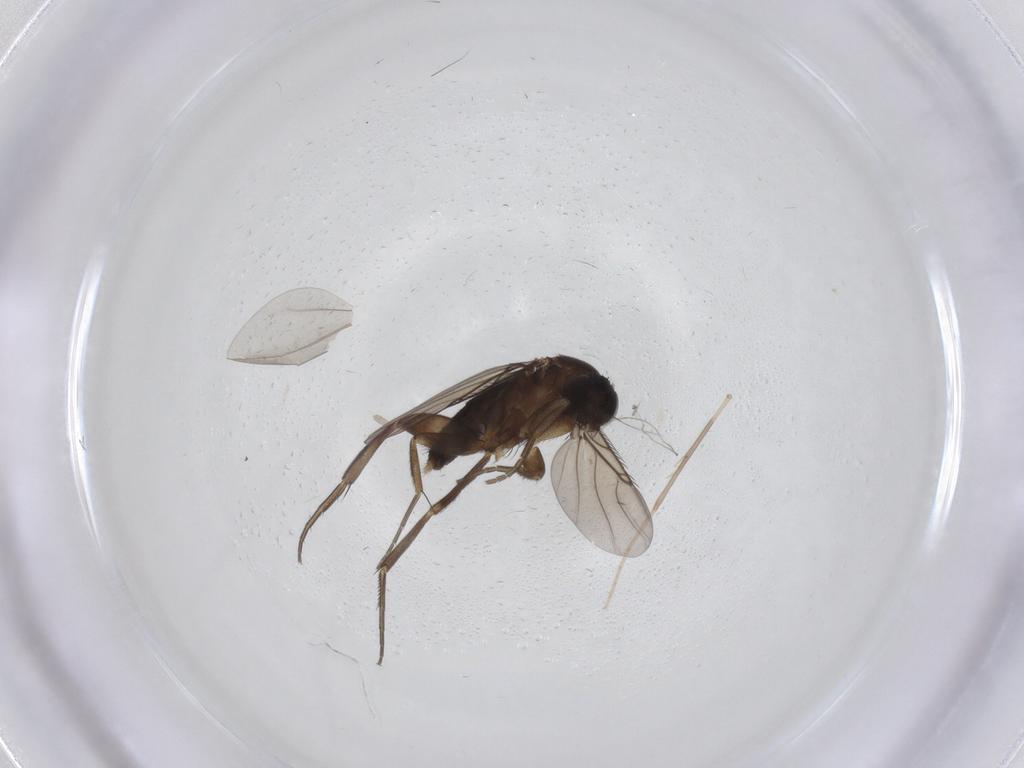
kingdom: Animalia
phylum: Arthropoda
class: Insecta
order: Diptera
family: Phoridae
